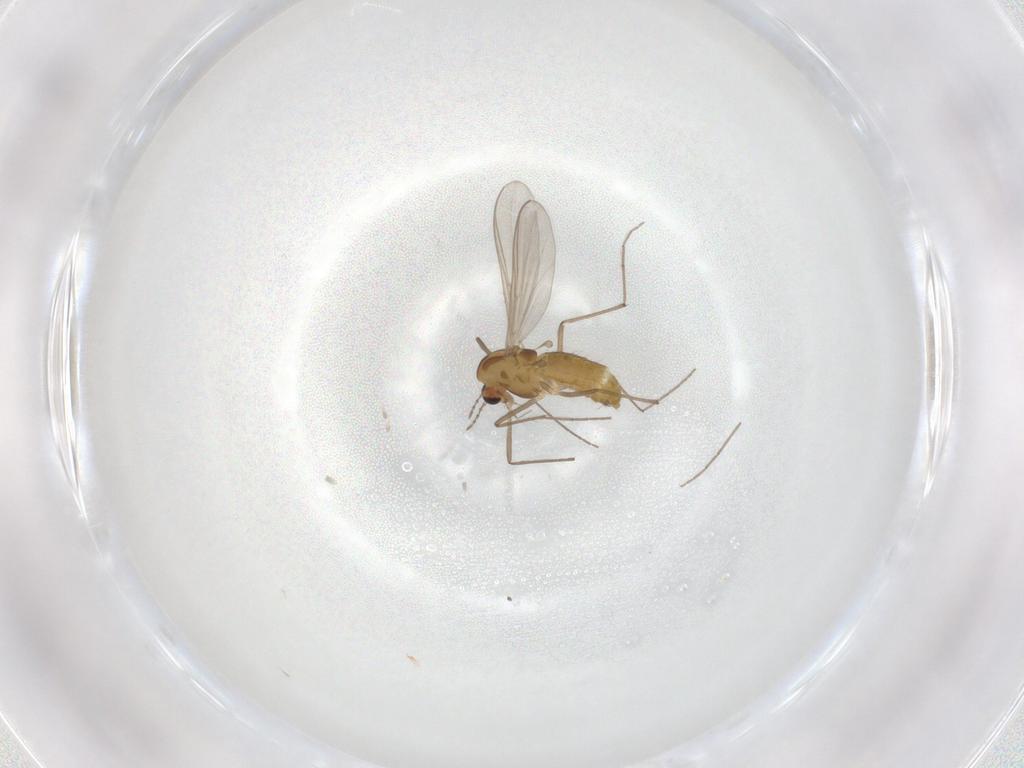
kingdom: Animalia
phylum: Arthropoda
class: Insecta
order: Diptera
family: Chironomidae
